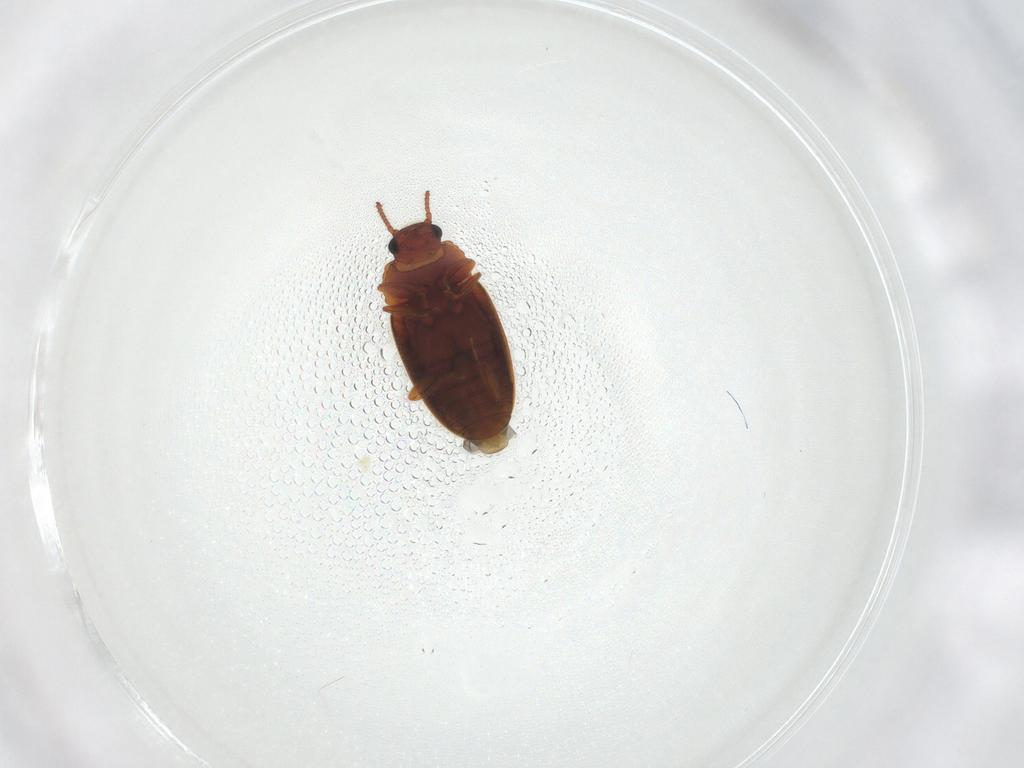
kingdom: Animalia
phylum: Arthropoda
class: Insecta
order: Coleoptera
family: Erotylidae
